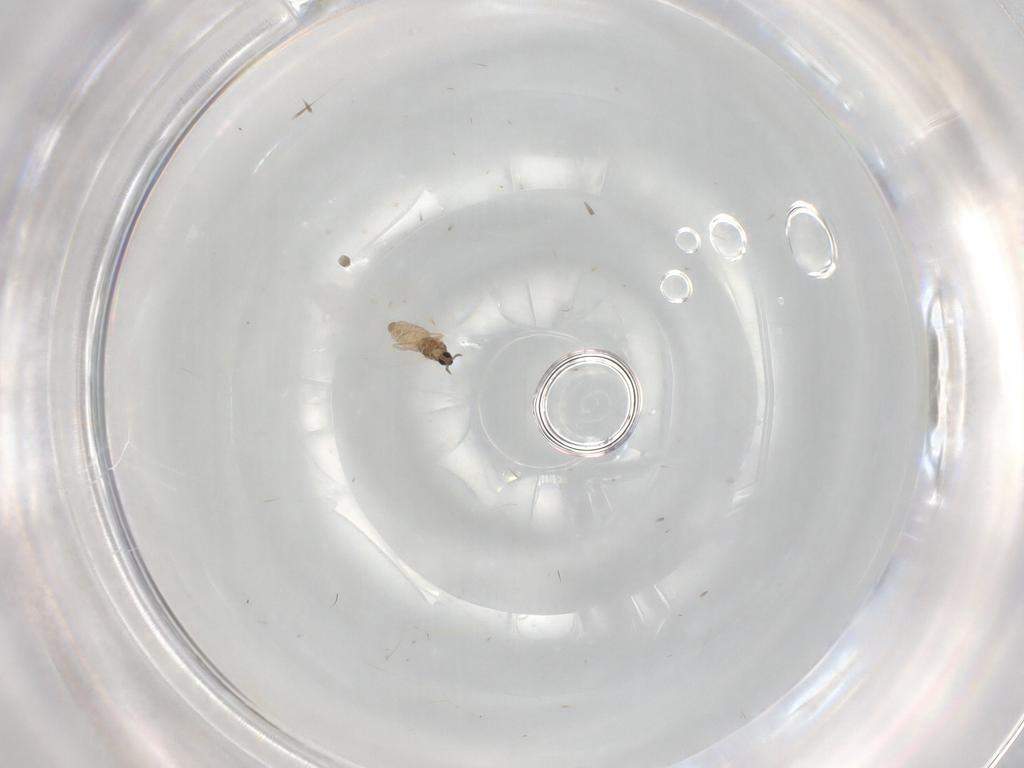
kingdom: Animalia
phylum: Arthropoda
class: Insecta
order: Diptera
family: Cecidomyiidae
